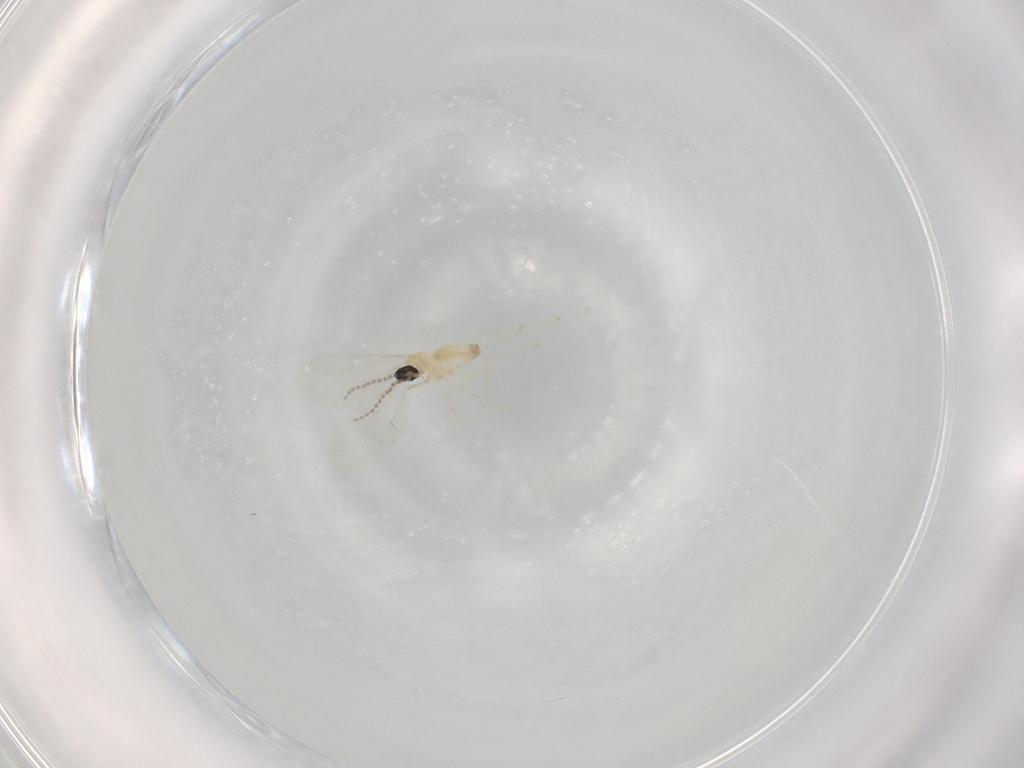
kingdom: Animalia
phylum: Arthropoda
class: Insecta
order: Diptera
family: Cecidomyiidae
